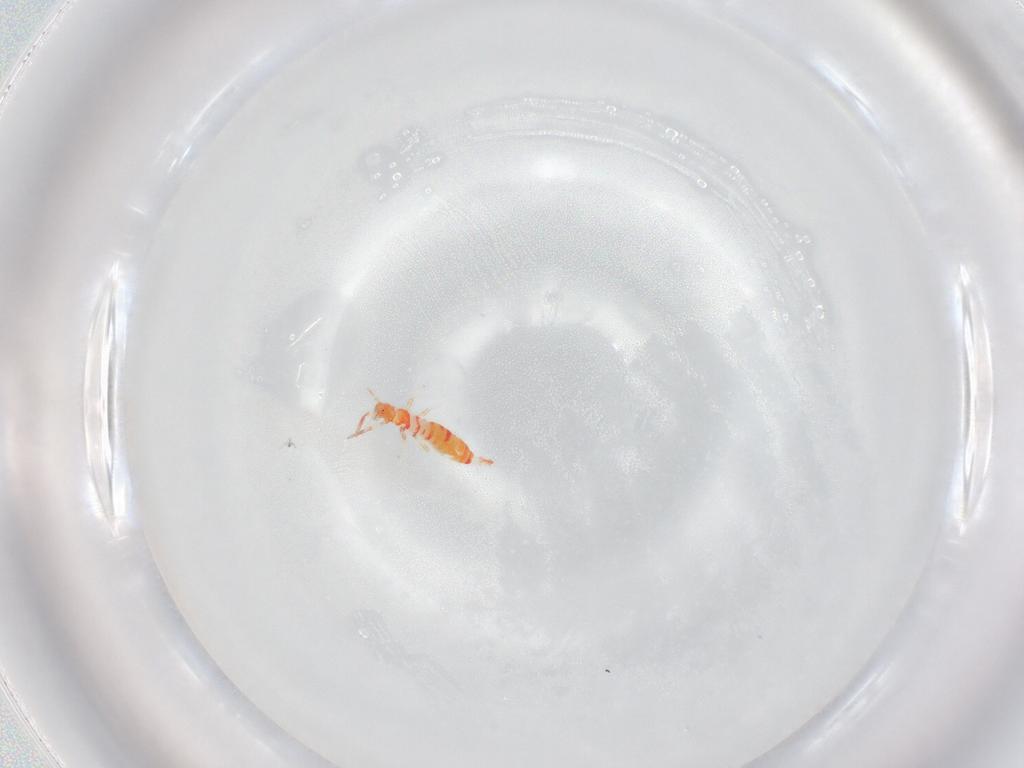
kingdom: Animalia
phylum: Arthropoda
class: Insecta
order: Thysanoptera
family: Aeolothripidae
